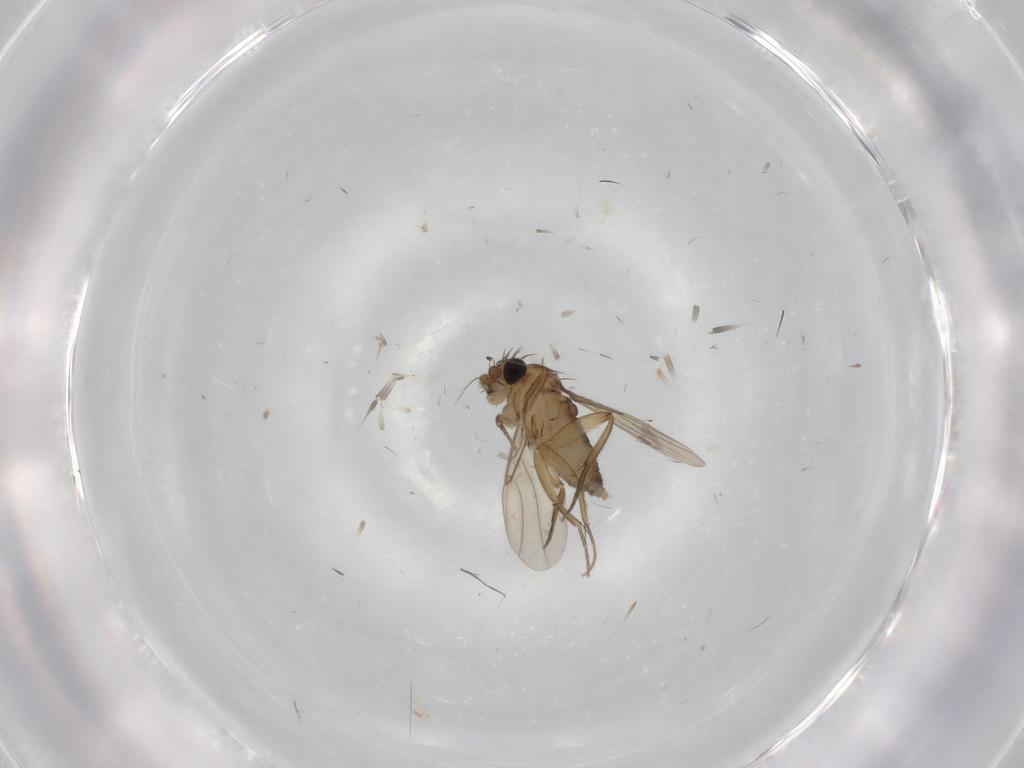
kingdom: Animalia
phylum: Arthropoda
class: Insecta
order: Diptera
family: Phoridae
